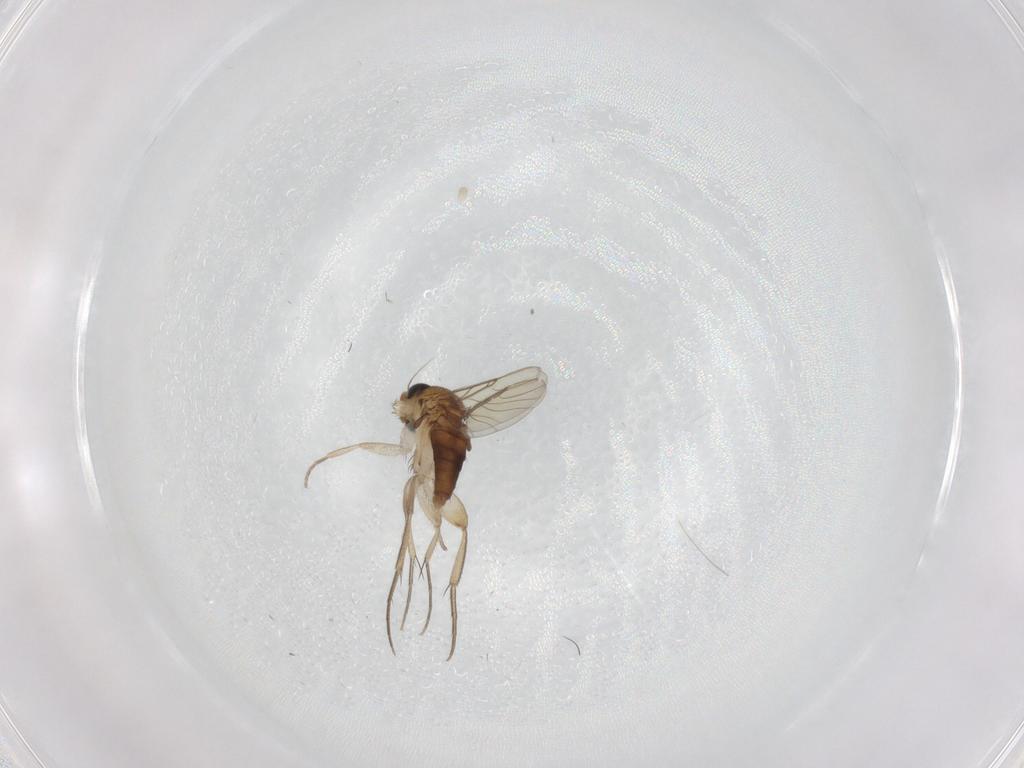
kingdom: Animalia
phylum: Arthropoda
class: Insecta
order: Diptera
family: Phoridae
